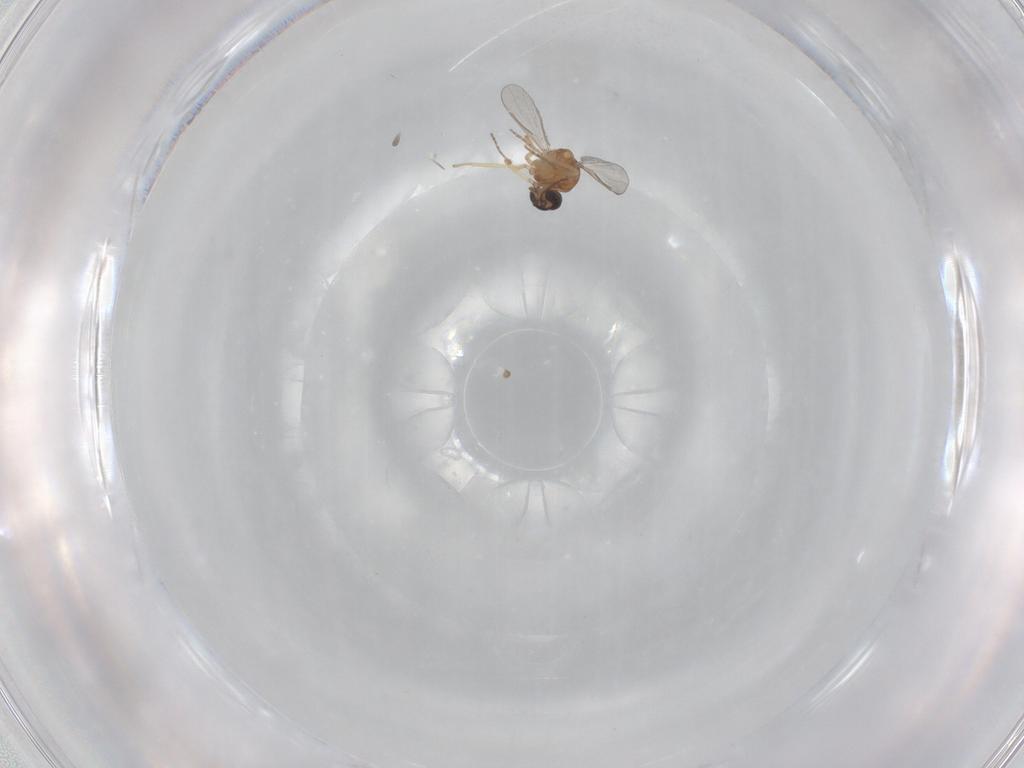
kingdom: Animalia
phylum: Arthropoda
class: Insecta
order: Diptera
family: Ceratopogonidae
